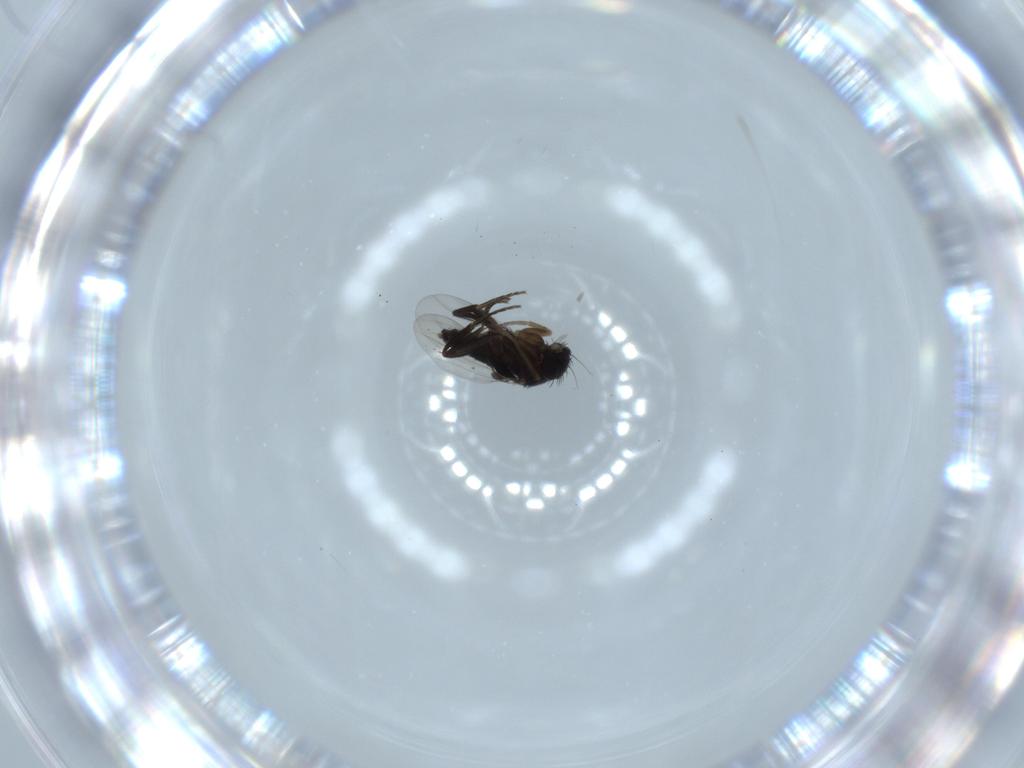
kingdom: Animalia
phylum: Arthropoda
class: Insecta
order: Diptera
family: Phoridae
